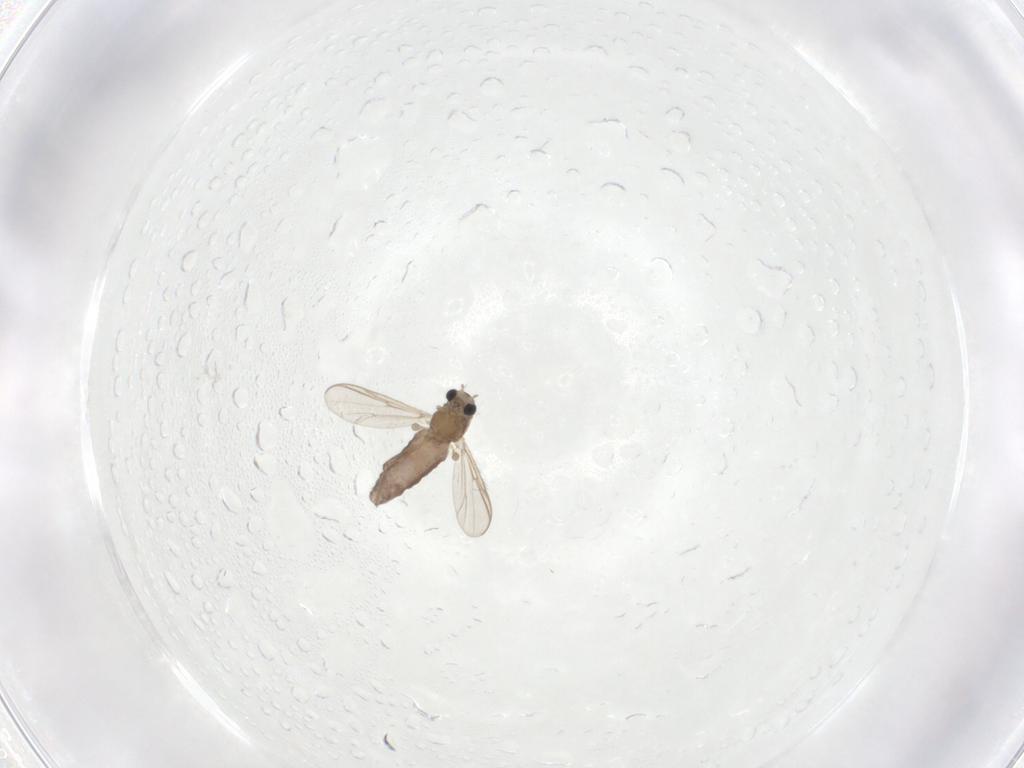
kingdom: Animalia
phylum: Arthropoda
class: Insecta
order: Diptera
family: Chironomidae
